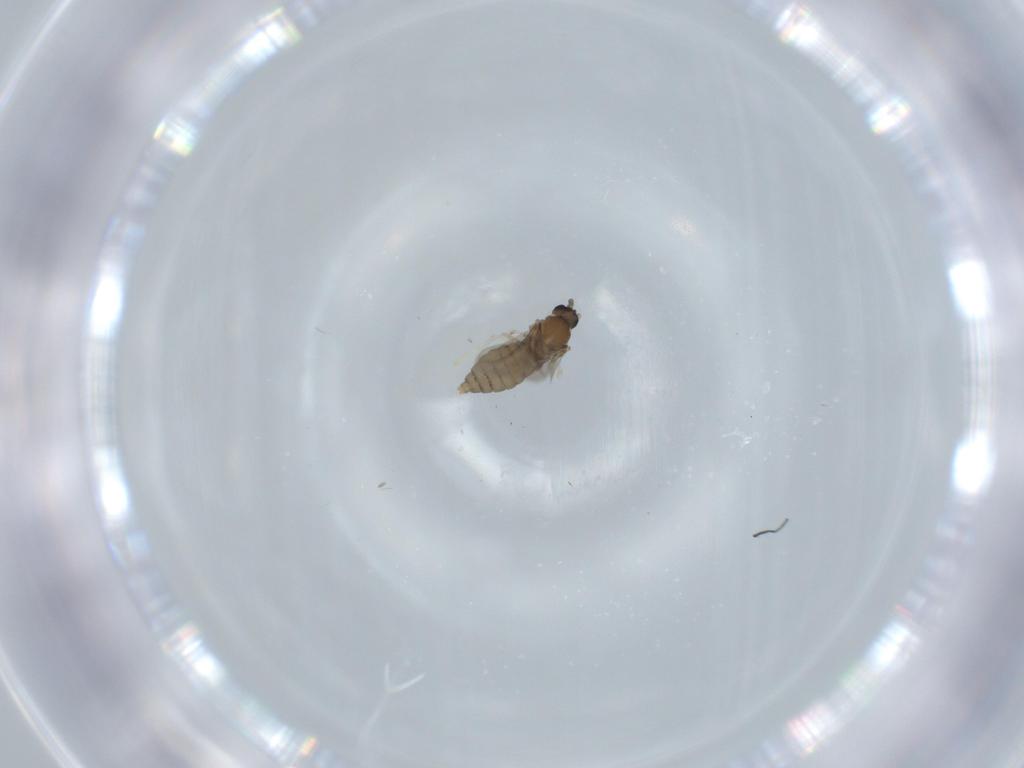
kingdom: Animalia
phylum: Arthropoda
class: Insecta
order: Diptera
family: Cecidomyiidae
